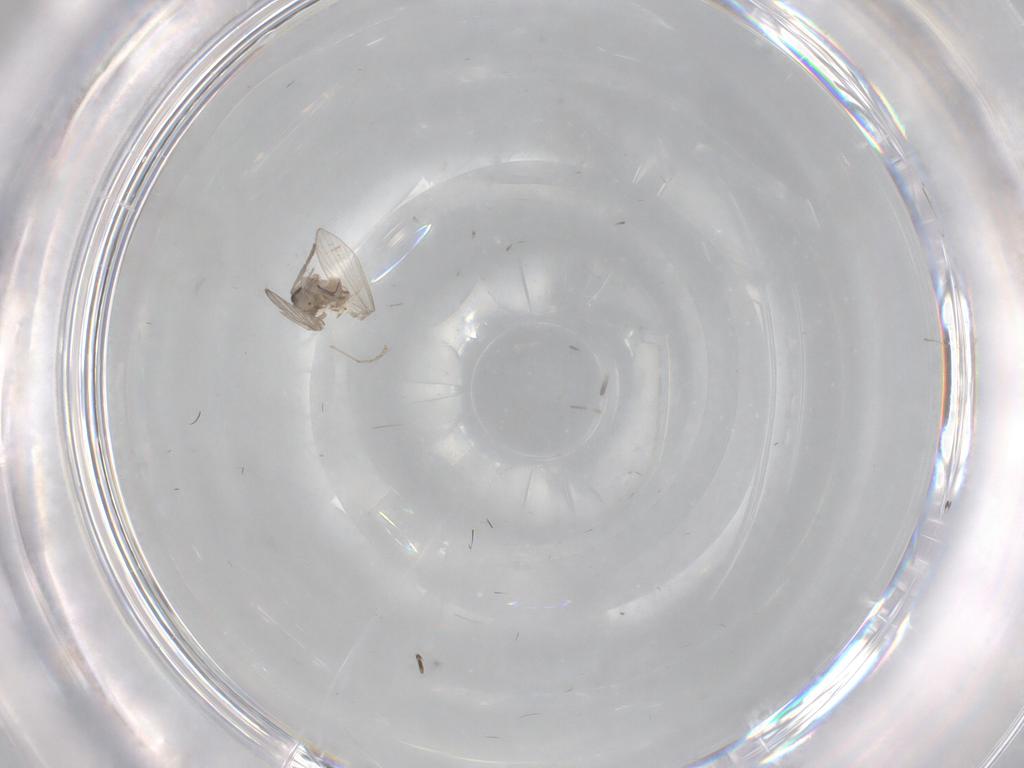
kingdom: Animalia
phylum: Arthropoda
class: Insecta
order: Diptera
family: Psychodidae
